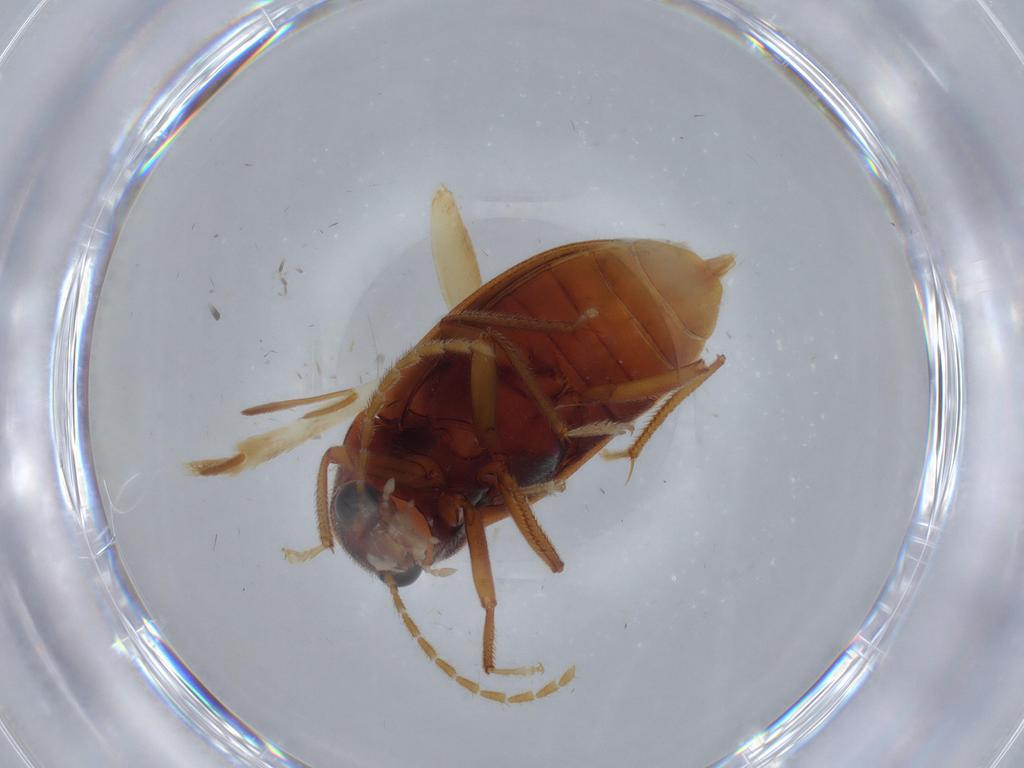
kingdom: Animalia
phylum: Arthropoda
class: Insecta
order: Coleoptera
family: Ptilodactylidae
